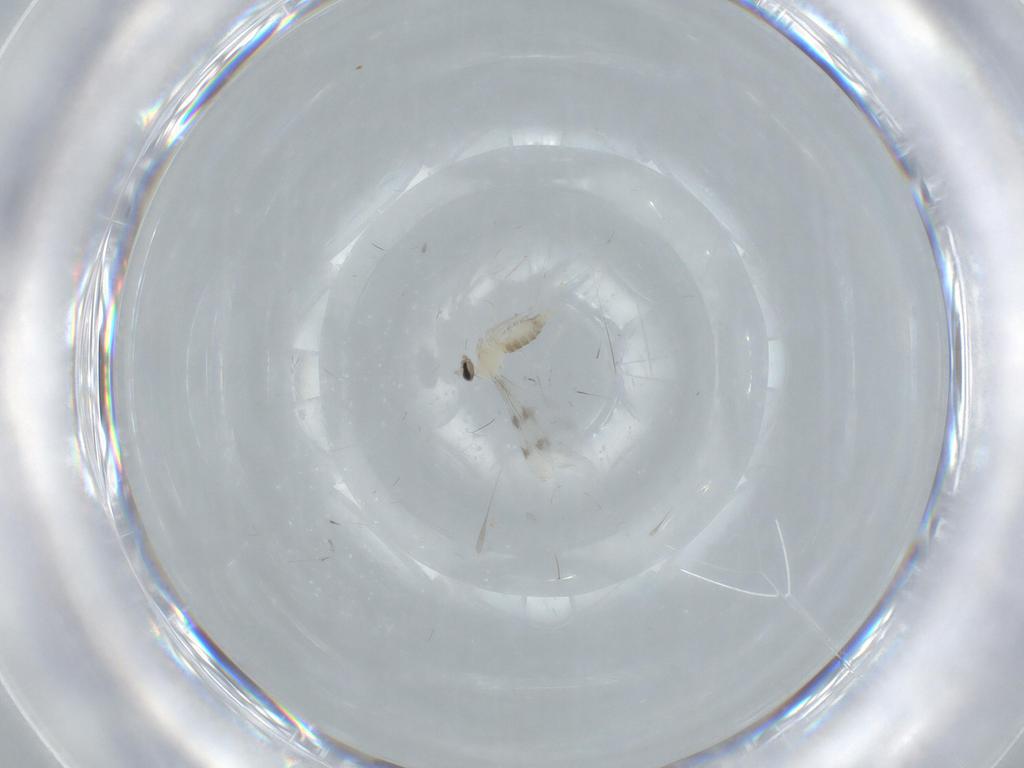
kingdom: Animalia
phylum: Arthropoda
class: Insecta
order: Diptera
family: Cecidomyiidae
